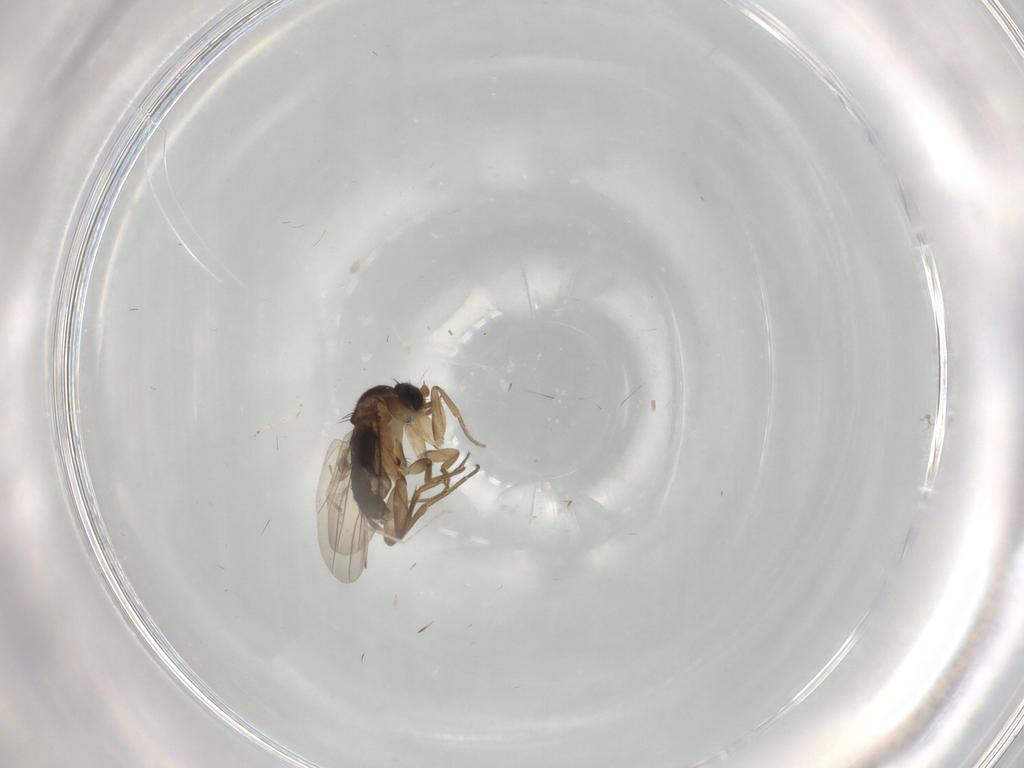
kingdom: Animalia
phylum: Arthropoda
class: Insecta
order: Diptera
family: Phoridae
